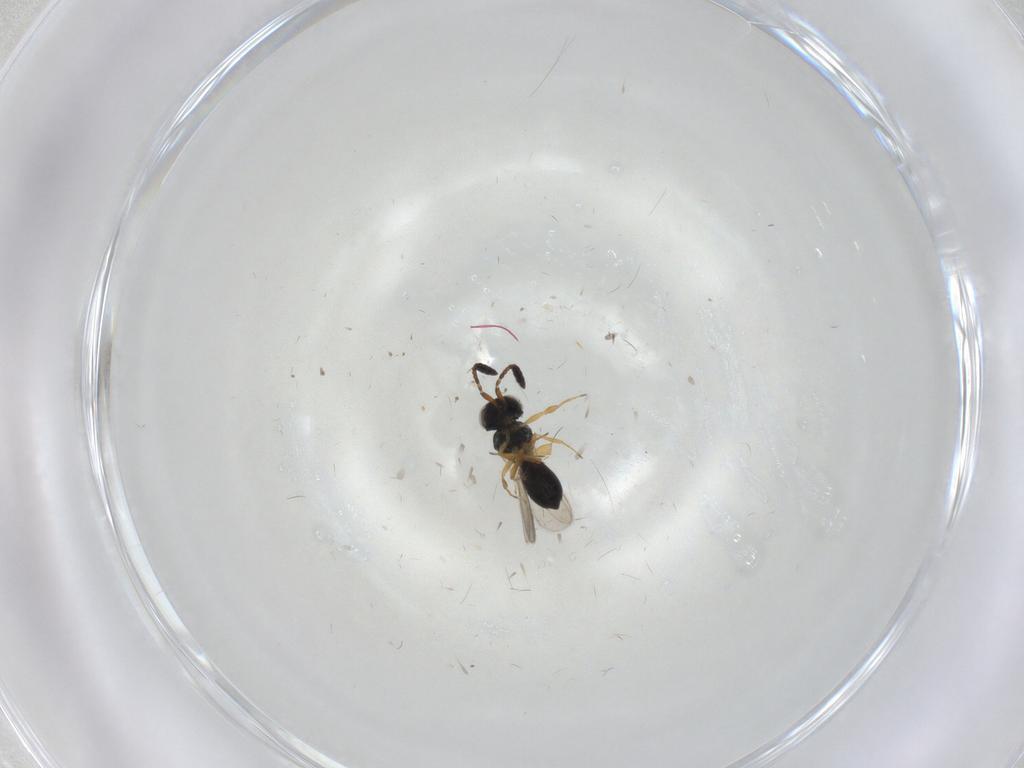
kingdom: Animalia
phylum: Arthropoda
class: Insecta
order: Hymenoptera
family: Scelionidae
